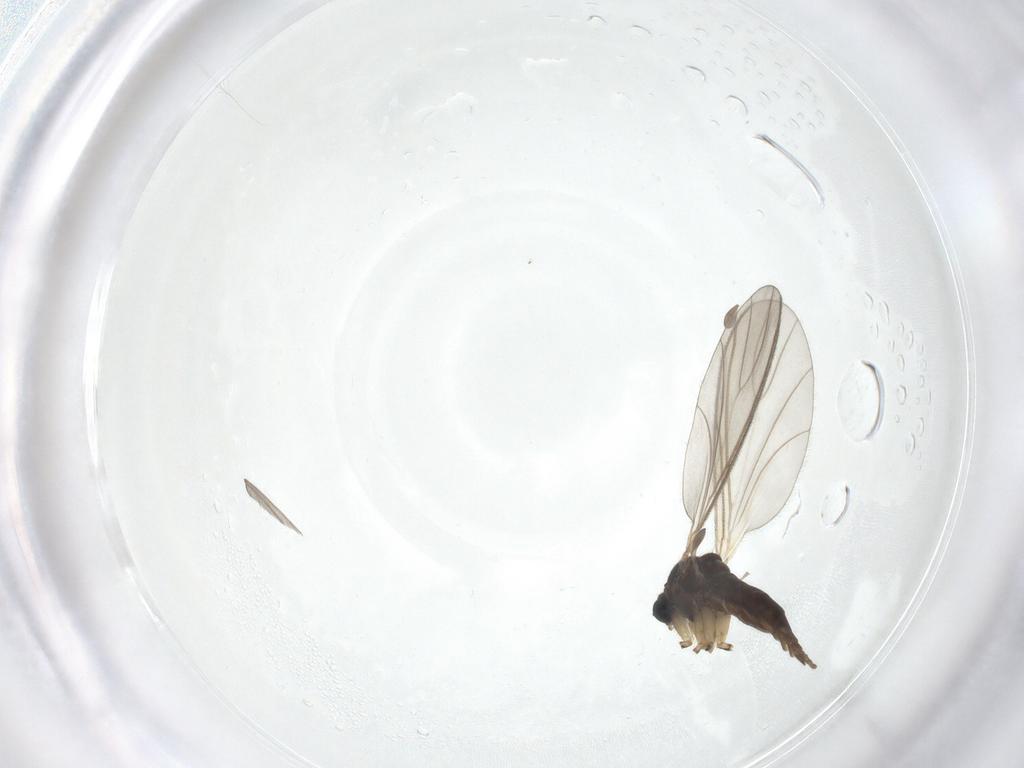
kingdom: Animalia
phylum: Arthropoda
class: Insecta
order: Diptera
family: Sciaridae
